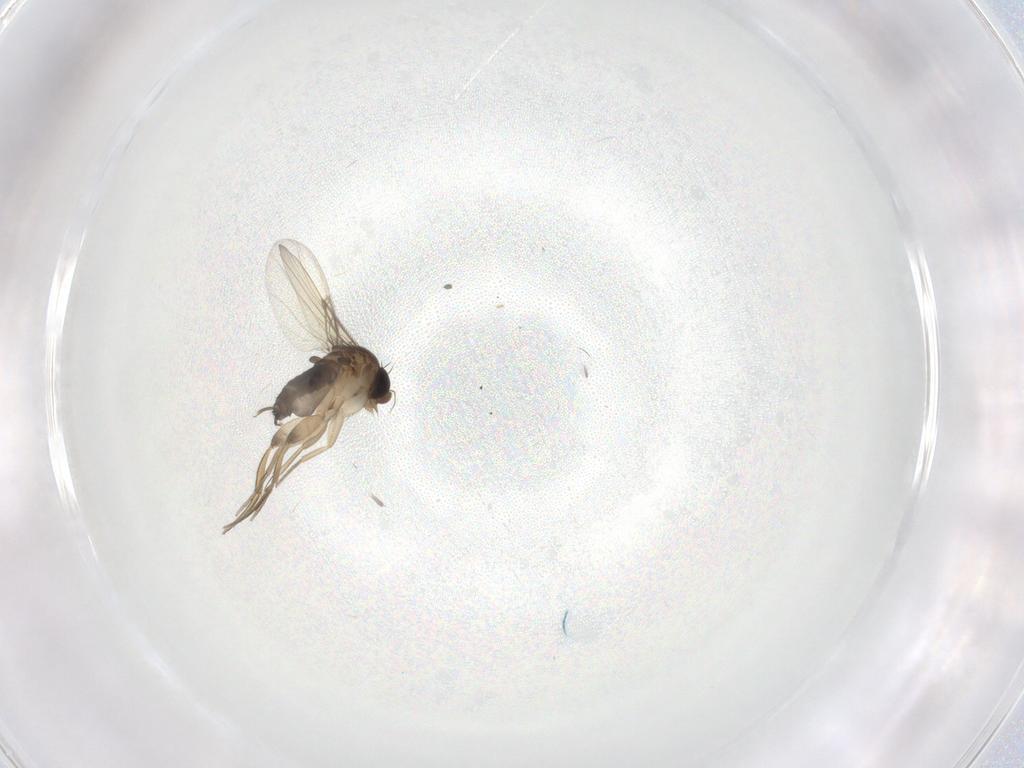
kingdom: Animalia
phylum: Arthropoda
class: Insecta
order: Diptera
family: Phoridae
